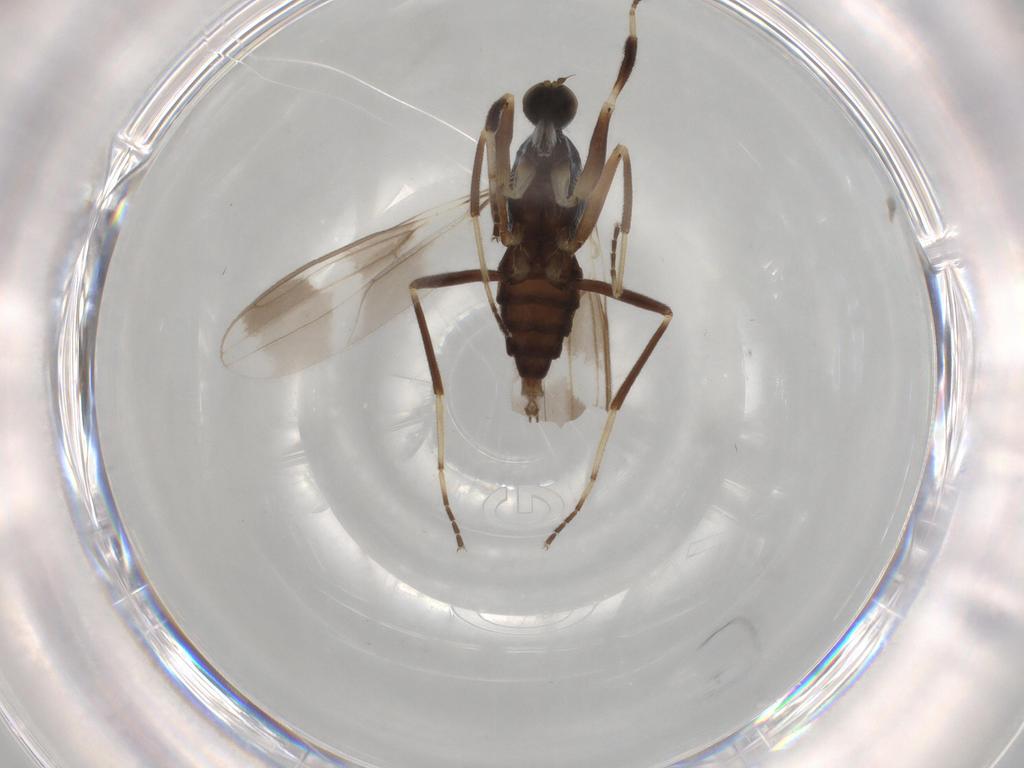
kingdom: Animalia
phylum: Arthropoda
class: Insecta
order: Diptera
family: Hybotidae
